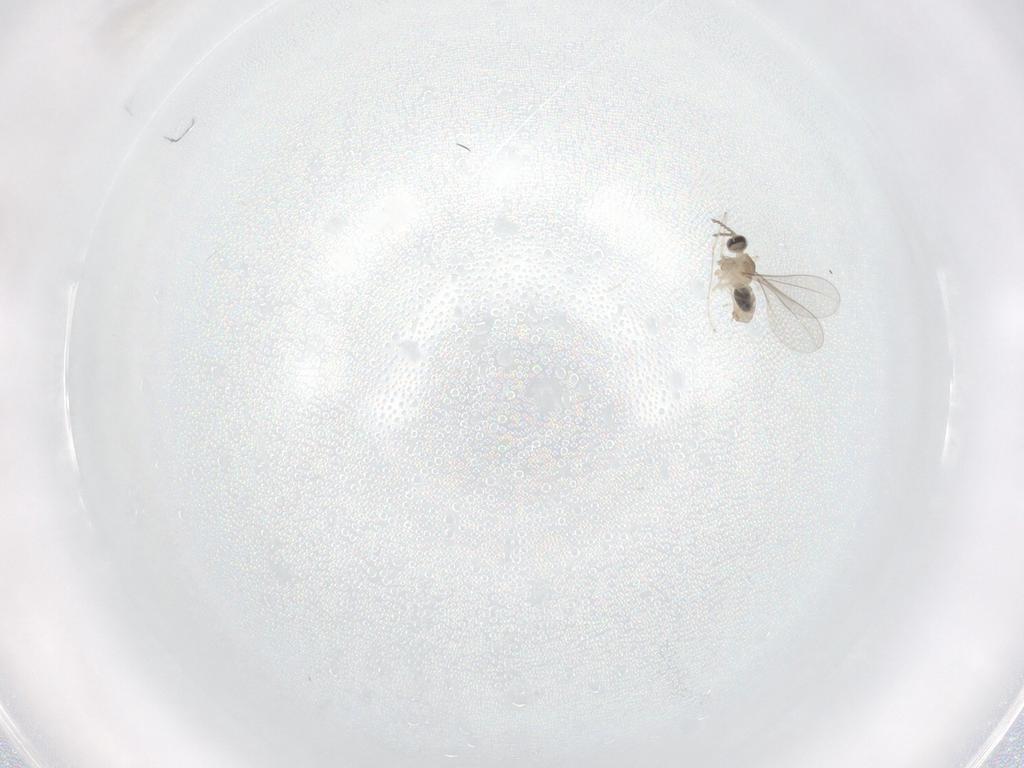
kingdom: Animalia
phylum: Arthropoda
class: Insecta
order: Diptera
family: Cecidomyiidae
